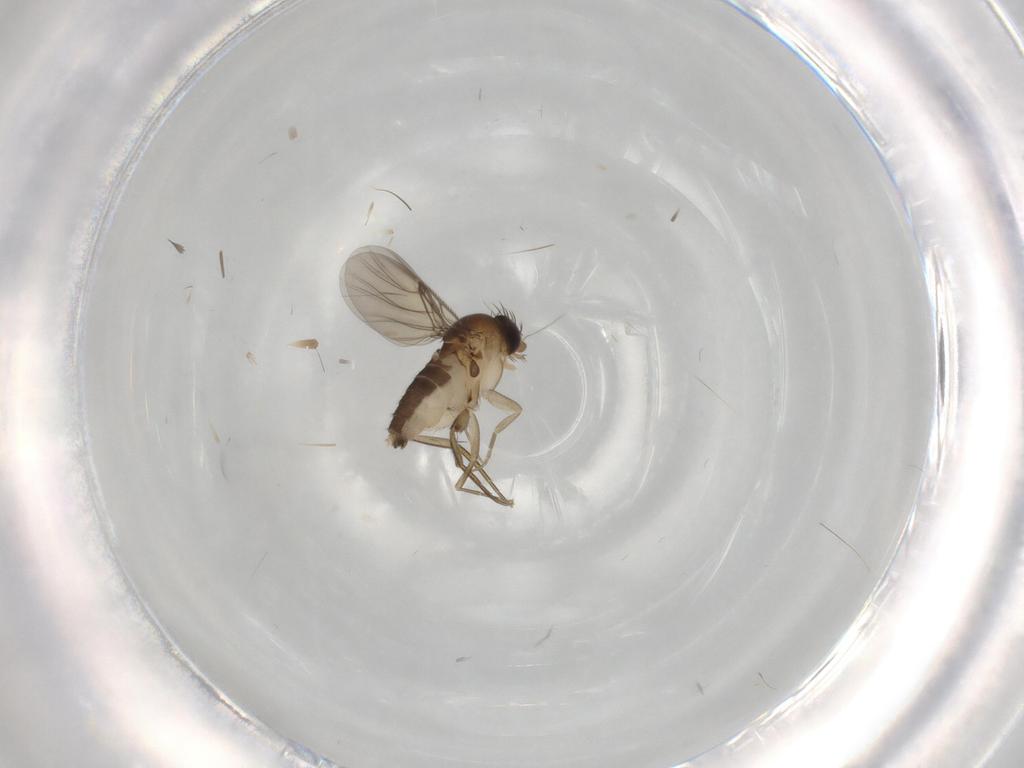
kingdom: Animalia
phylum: Arthropoda
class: Insecta
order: Diptera
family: Phoridae
